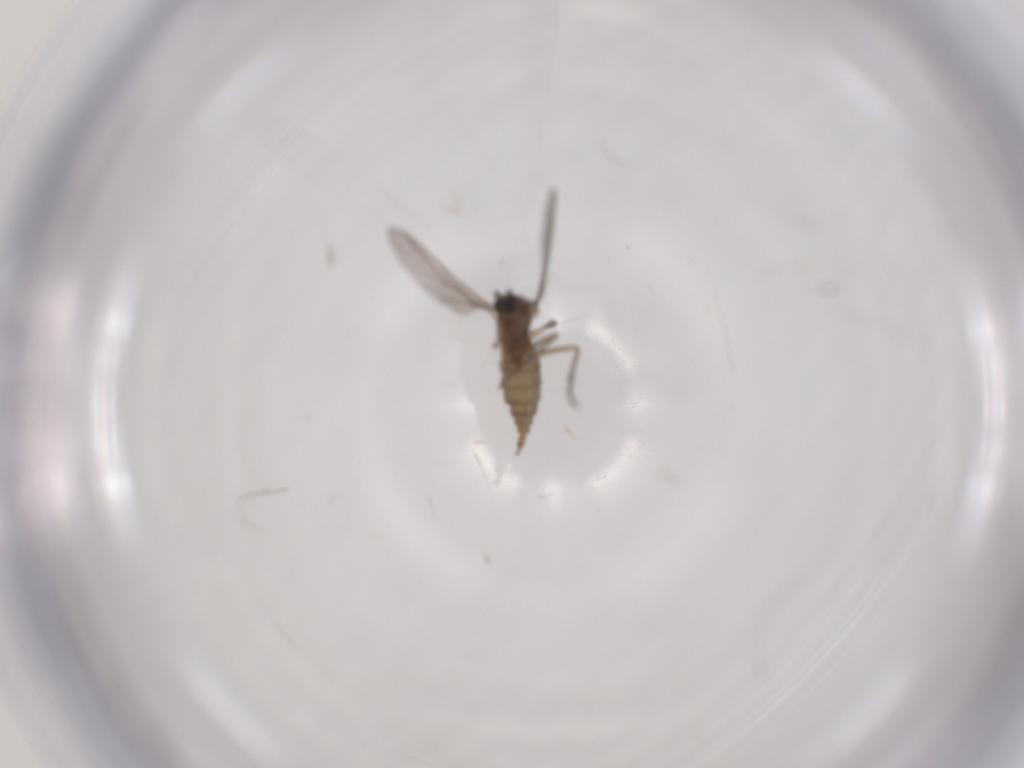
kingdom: Animalia
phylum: Arthropoda
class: Insecta
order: Diptera
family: Sciaridae
